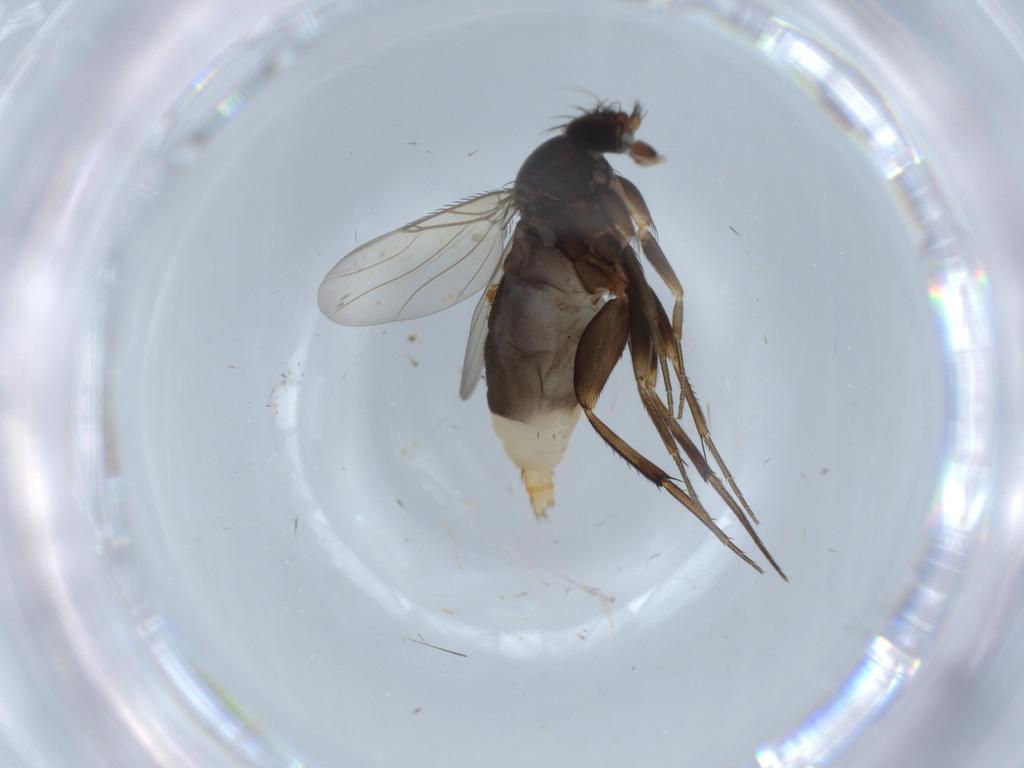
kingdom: Animalia
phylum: Arthropoda
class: Insecta
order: Diptera
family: Phoridae
